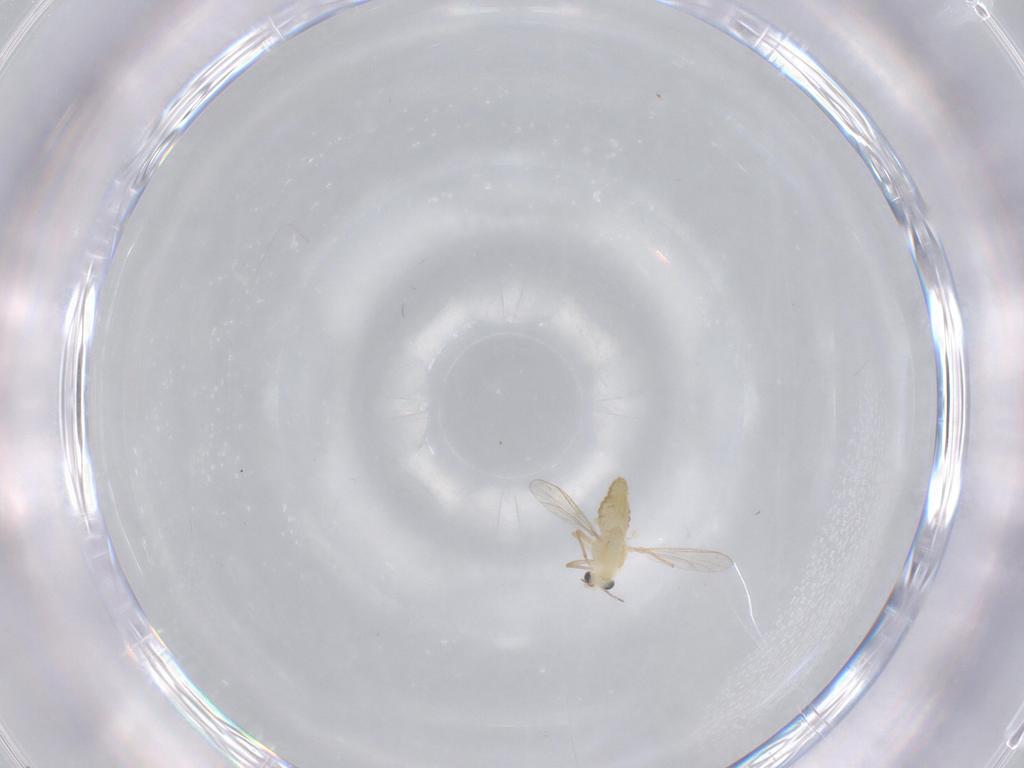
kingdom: Animalia
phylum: Arthropoda
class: Insecta
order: Diptera
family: Chironomidae
